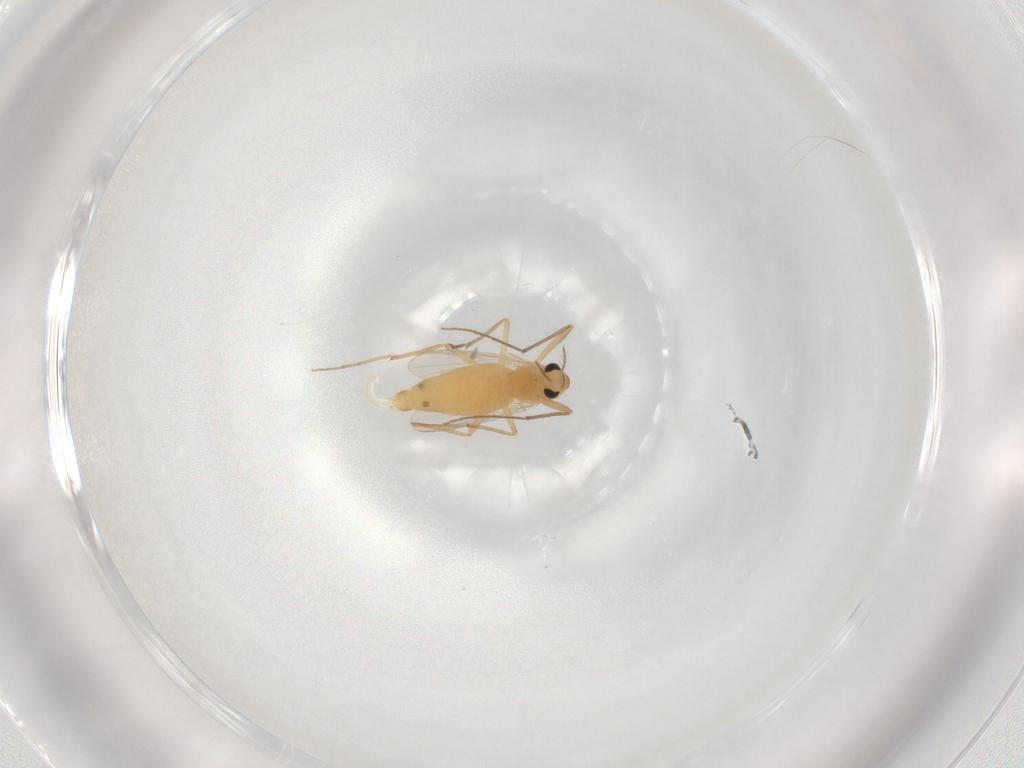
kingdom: Animalia
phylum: Arthropoda
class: Insecta
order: Diptera
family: Chironomidae
